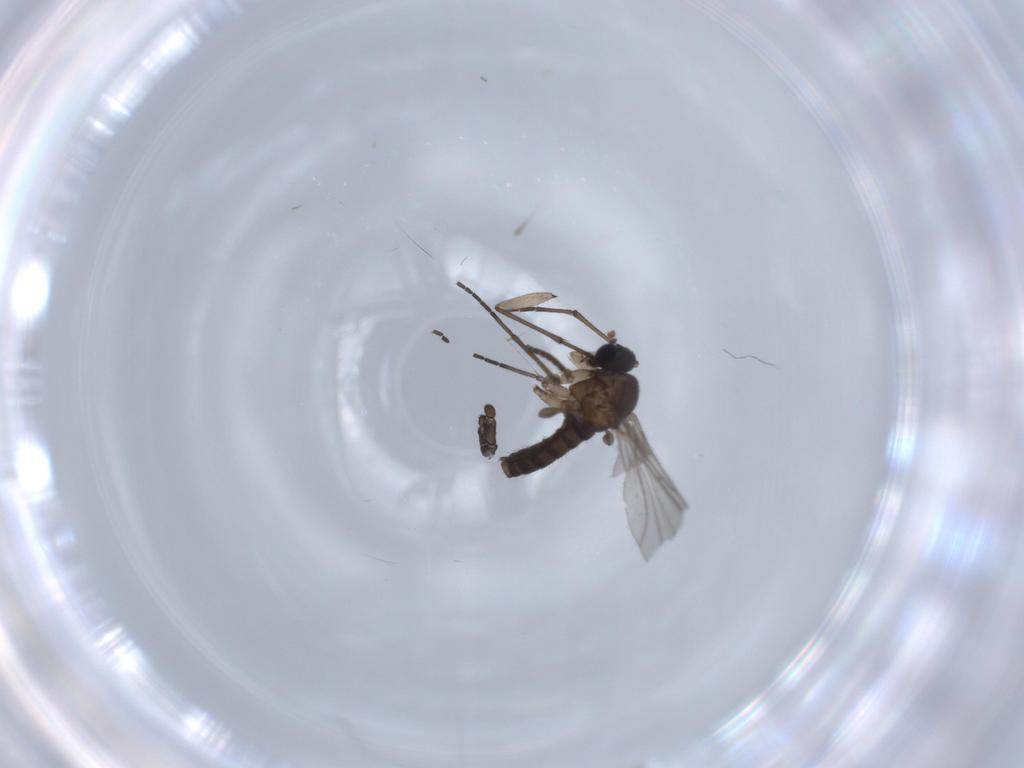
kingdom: Animalia
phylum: Arthropoda
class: Insecta
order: Diptera
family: Sciaridae
